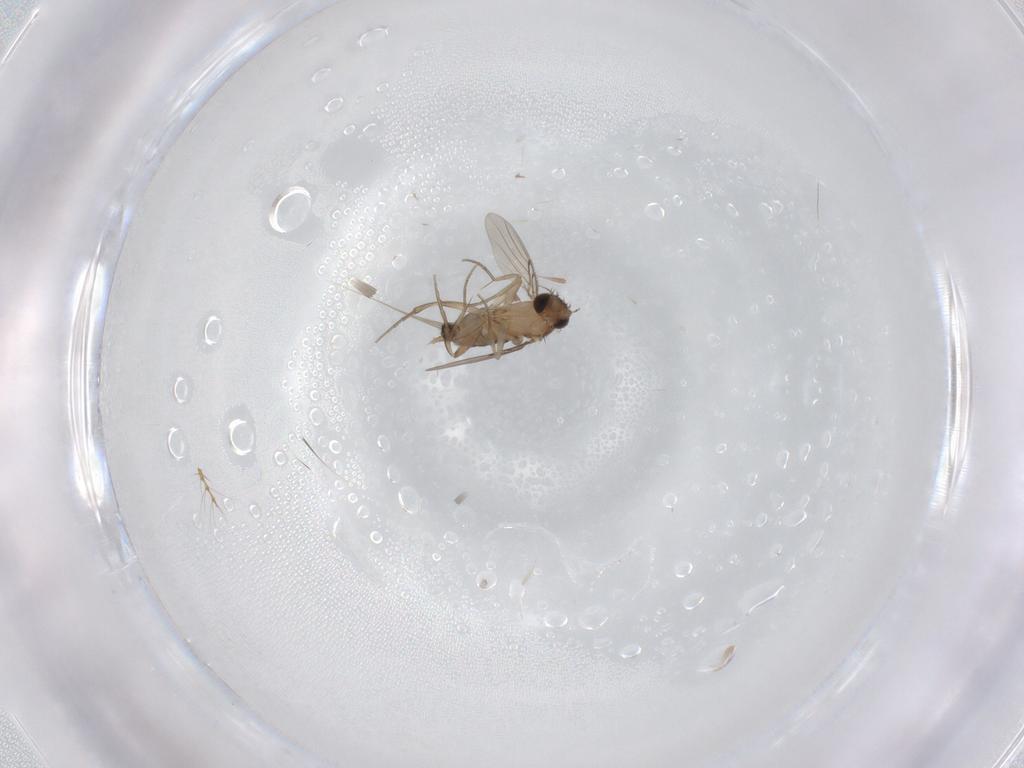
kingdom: Animalia
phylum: Arthropoda
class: Insecta
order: Diptera
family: Phoridae
